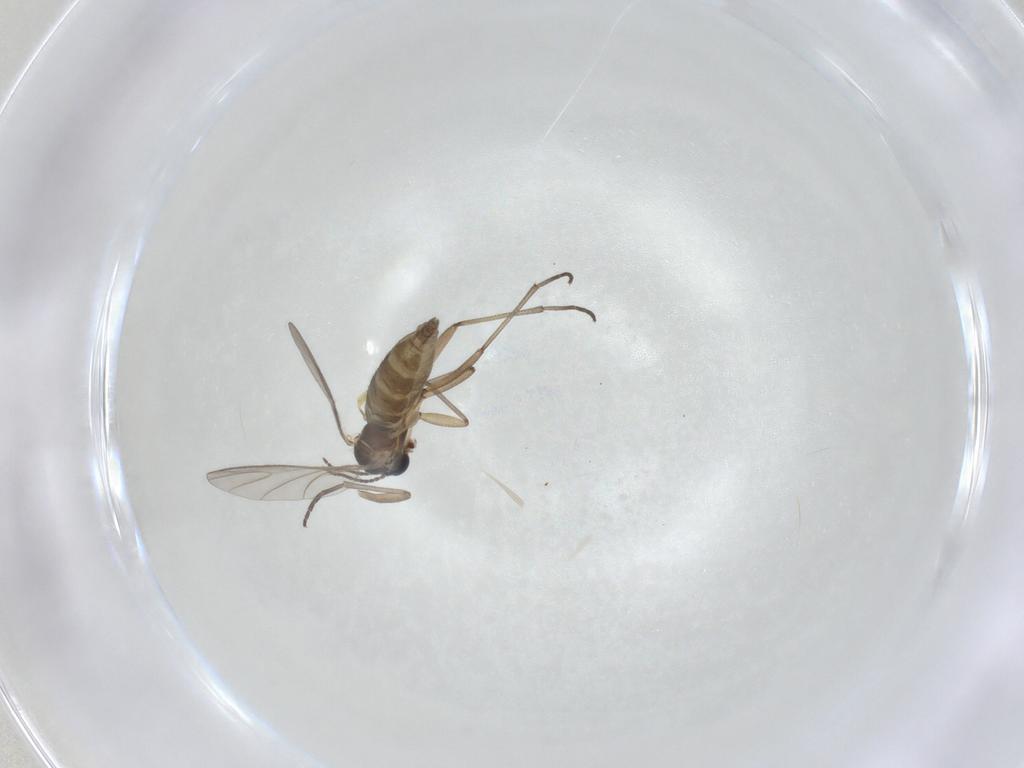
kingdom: Animalia
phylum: Arthropoda
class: Insecta
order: Diptera
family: Sciaridae
